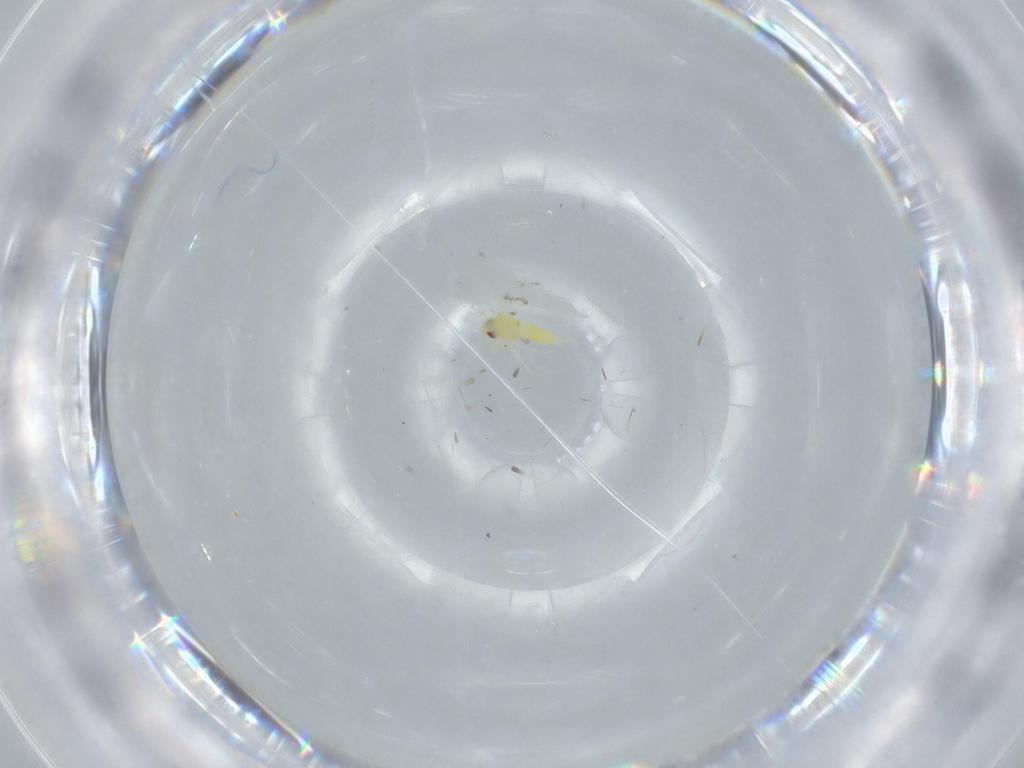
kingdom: Animalia
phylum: Arthropoda
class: Insecta
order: Hemiptera
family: Aleyrodidae
